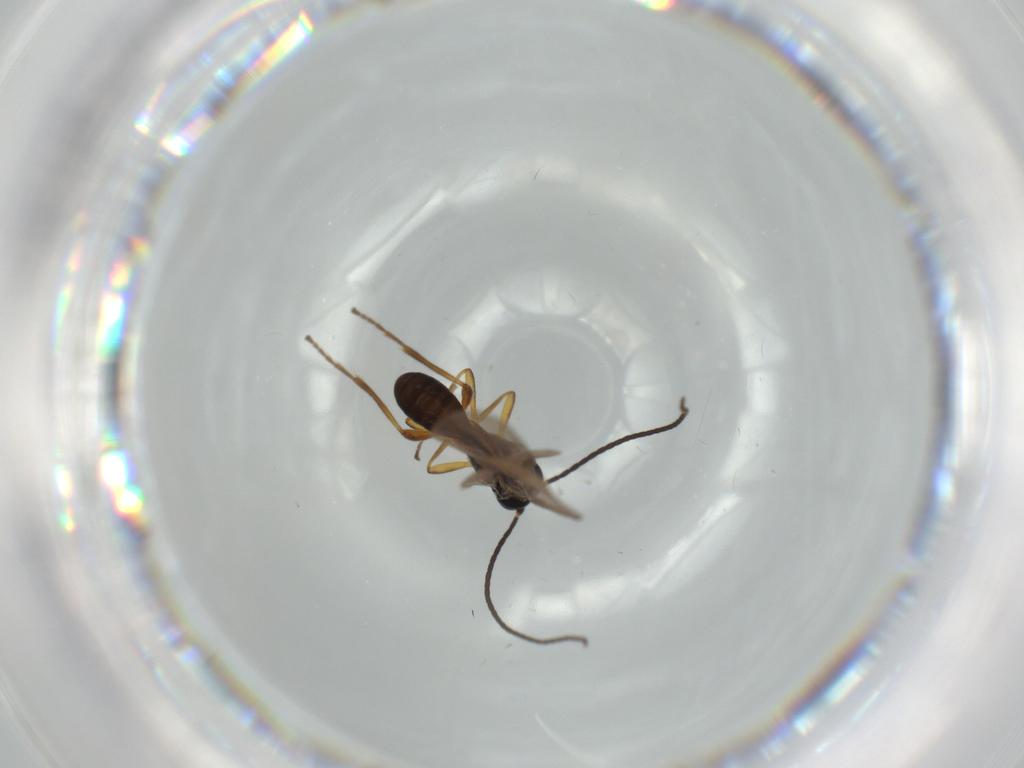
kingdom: Animalia
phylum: Arthropoda
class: Insecta
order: Hymenoptera
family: Braconidae
